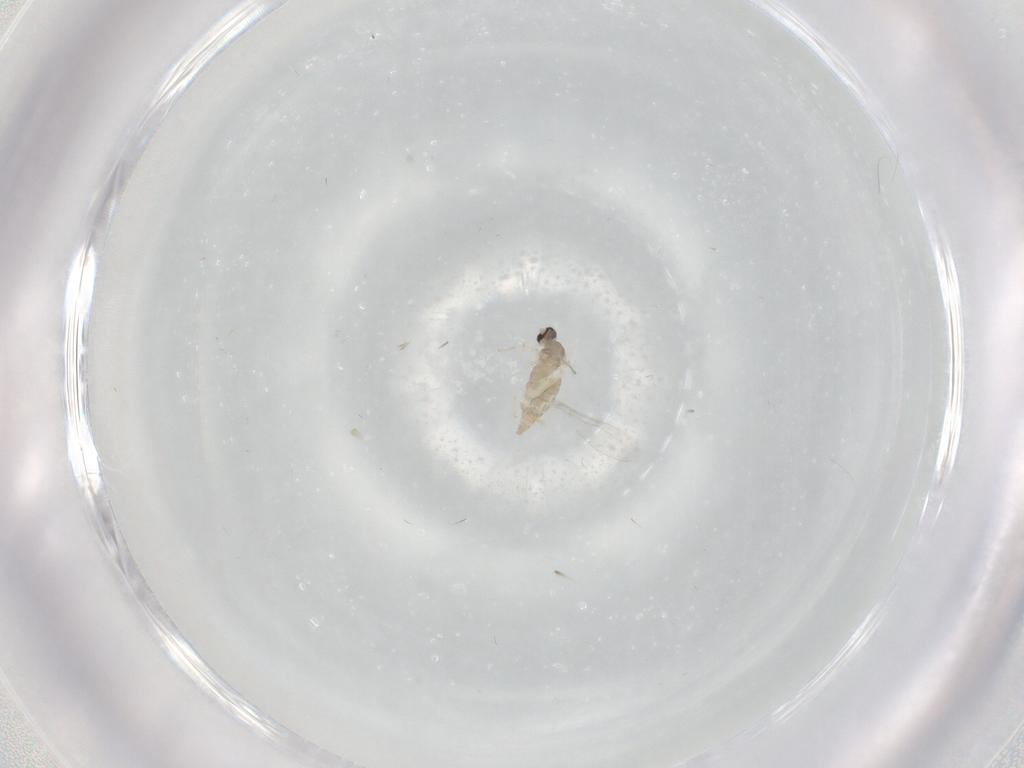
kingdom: Animalia
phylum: Arthropoda
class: Insecta
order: Diptera
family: Cecidomyiidae
